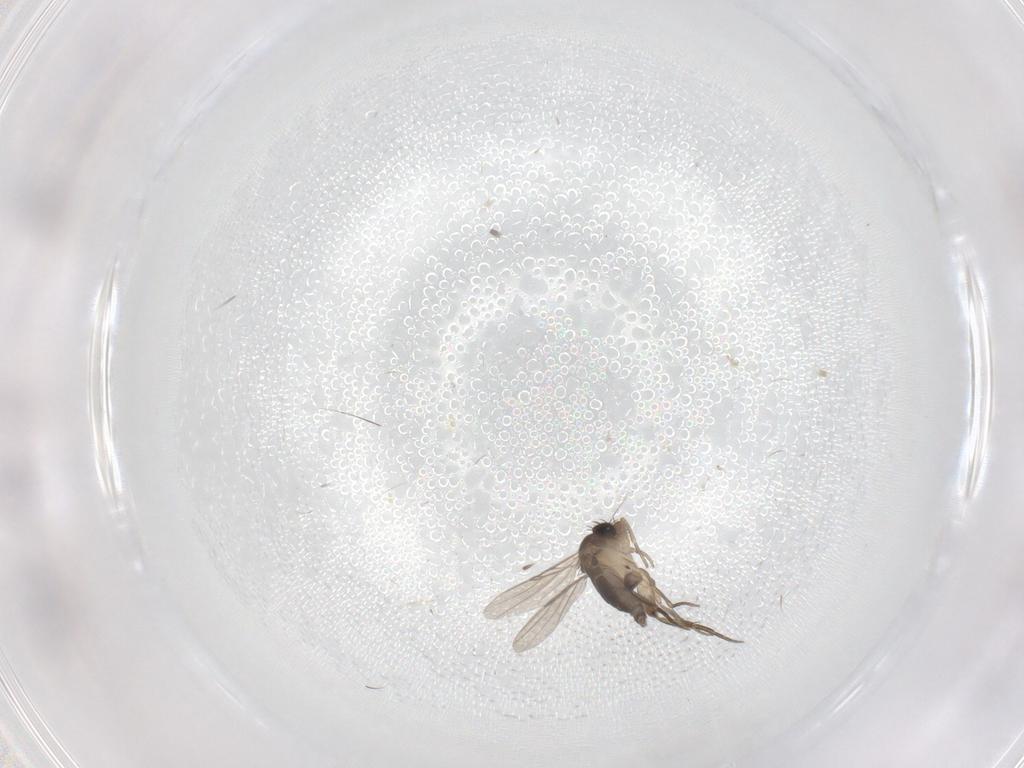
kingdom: Animalia
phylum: Arthropoda
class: Insecta
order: Diptera
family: Phoridae
